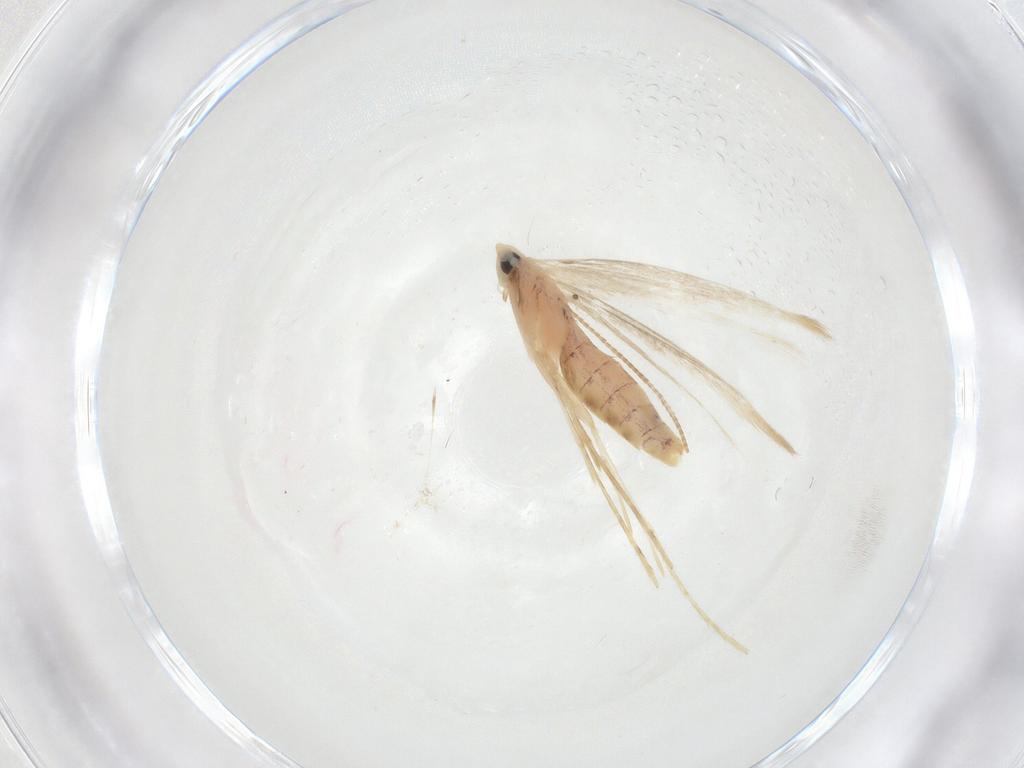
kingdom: Animalia
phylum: Arthropoda
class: Insecta
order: Lepidoptera
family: Tineidae
